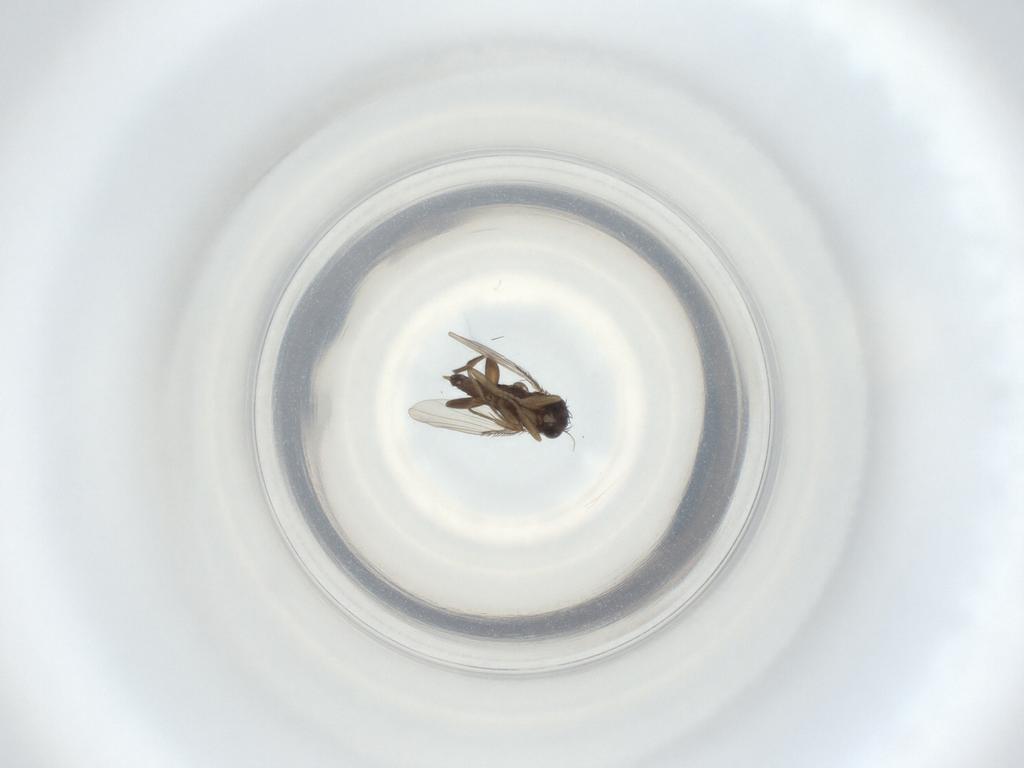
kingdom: Animalia
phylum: Arthropoda
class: Insecta
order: Diptera
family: Phoridae
